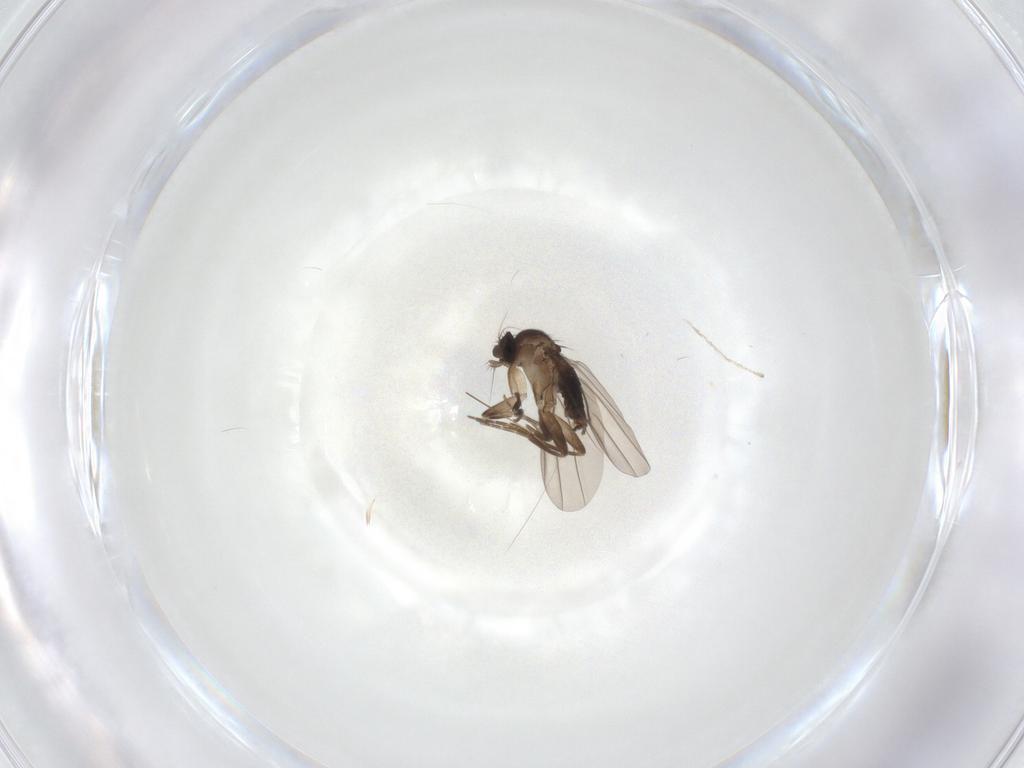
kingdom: Animalia
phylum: Arthropoda
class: Insecta
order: Diptera
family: Cecidomyiidae
